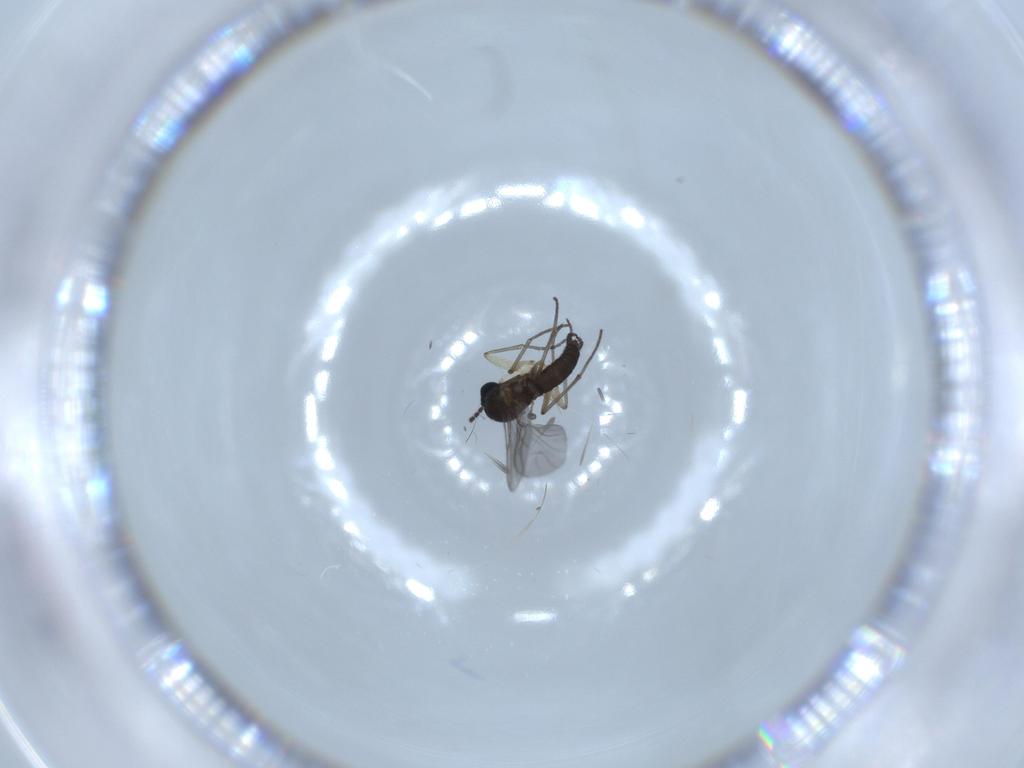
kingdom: Animalia
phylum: Arthropoda
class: Insecta
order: Diptera
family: Sciaridae
